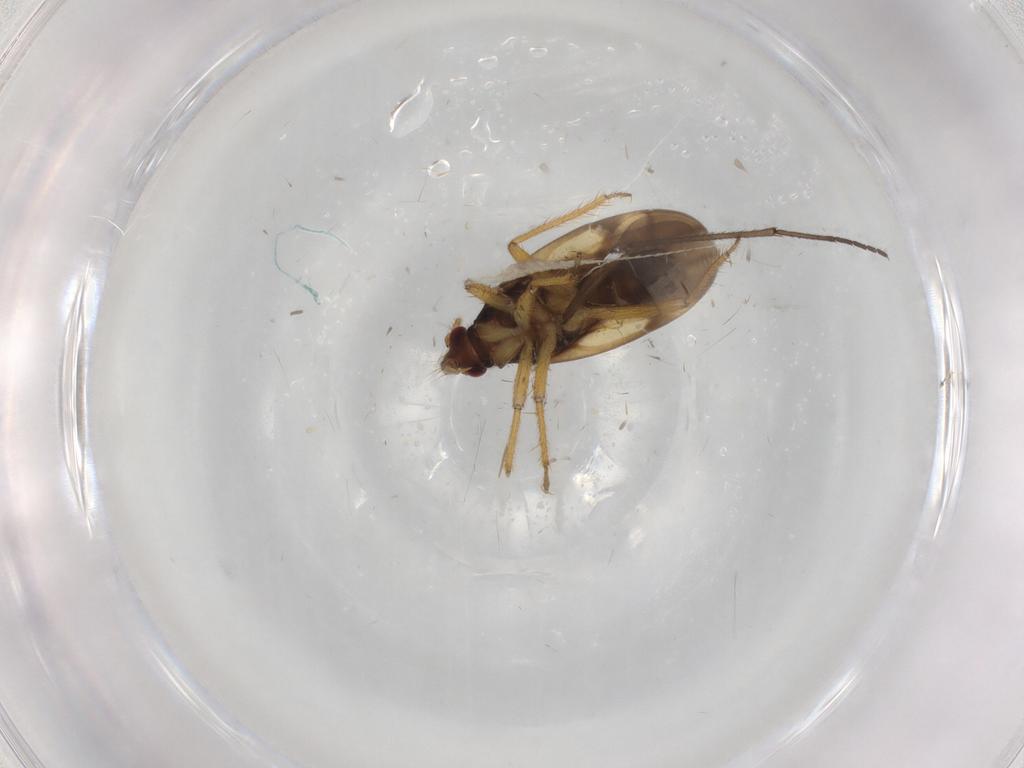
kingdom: Animalia
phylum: Arthropoda
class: Insecta
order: Hemiptera
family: Ceratocombidae
